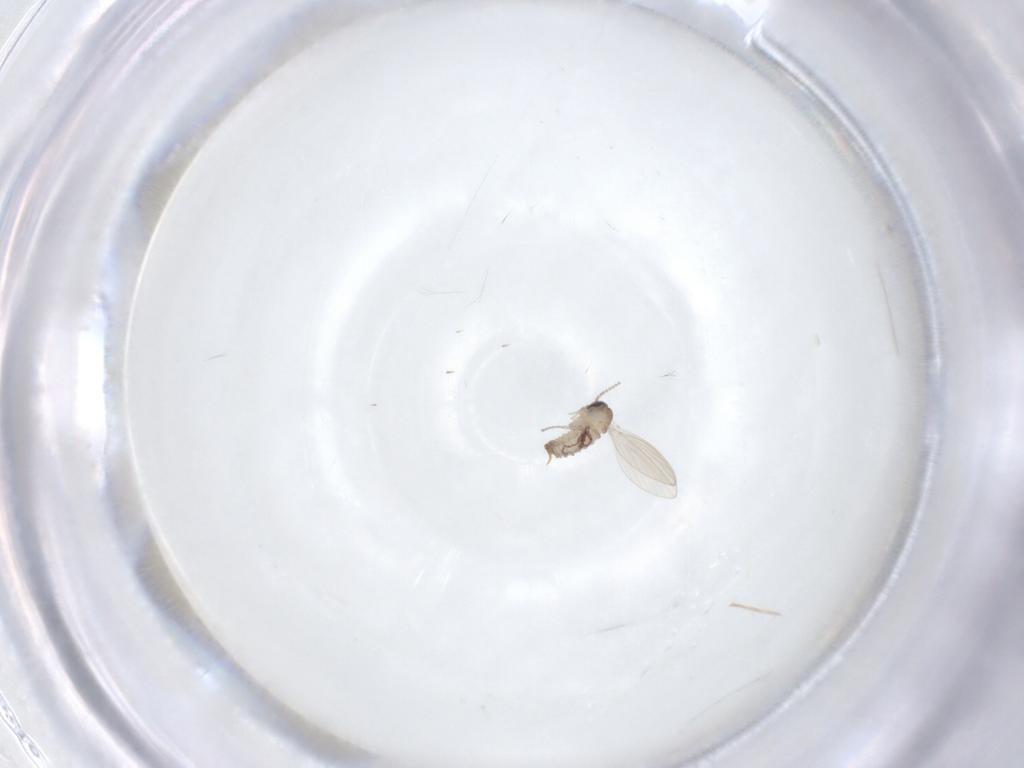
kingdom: Animalia
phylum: Arthropoda
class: Insecta
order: Diptera
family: Psychodidae
